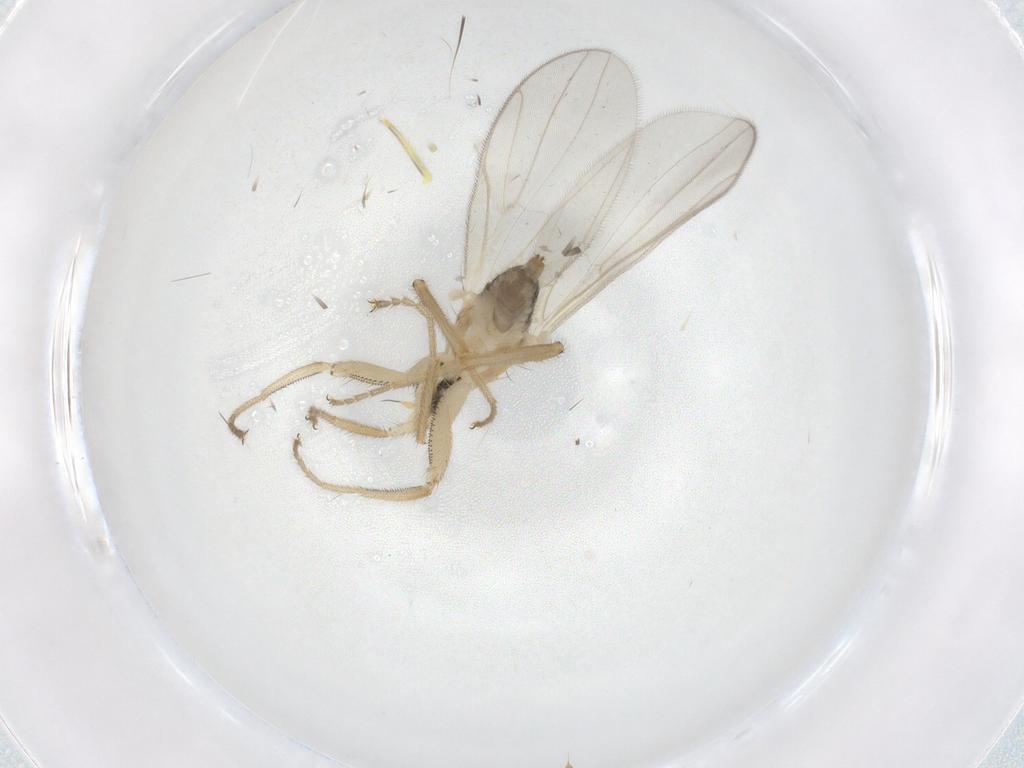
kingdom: Animalia
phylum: Arthropoda
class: Insecta
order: Diptera
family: Hybotidae
